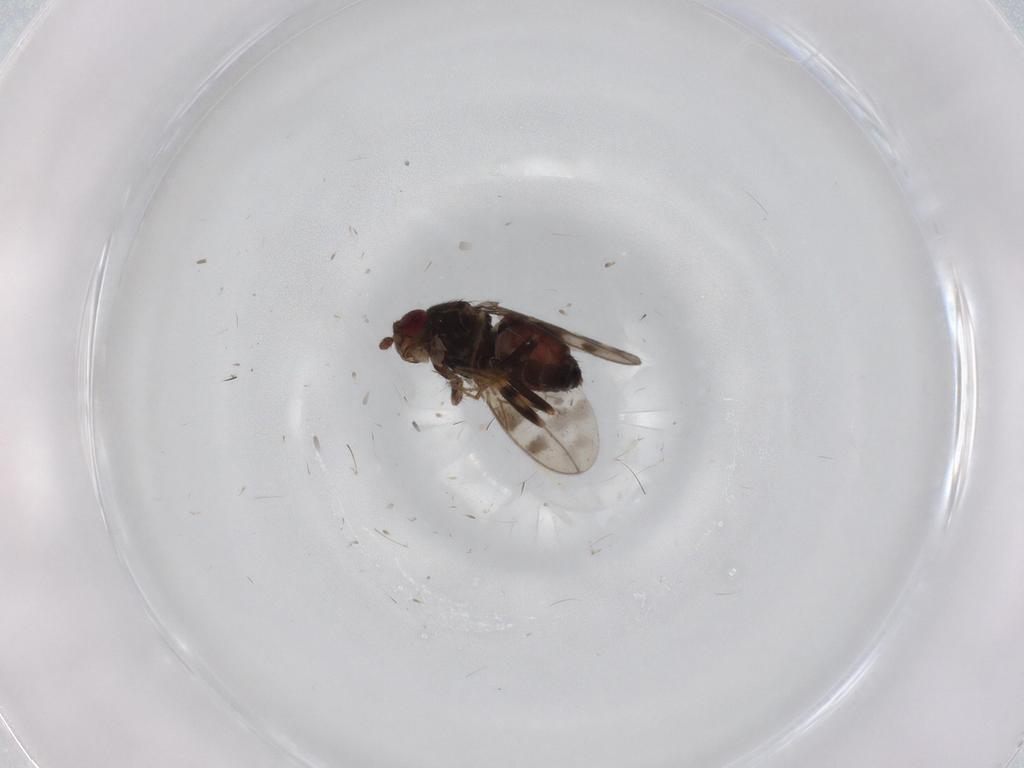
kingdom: Animalia
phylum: Arthropoda
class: Insecta
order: Diptera
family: Sphaeroceridae
